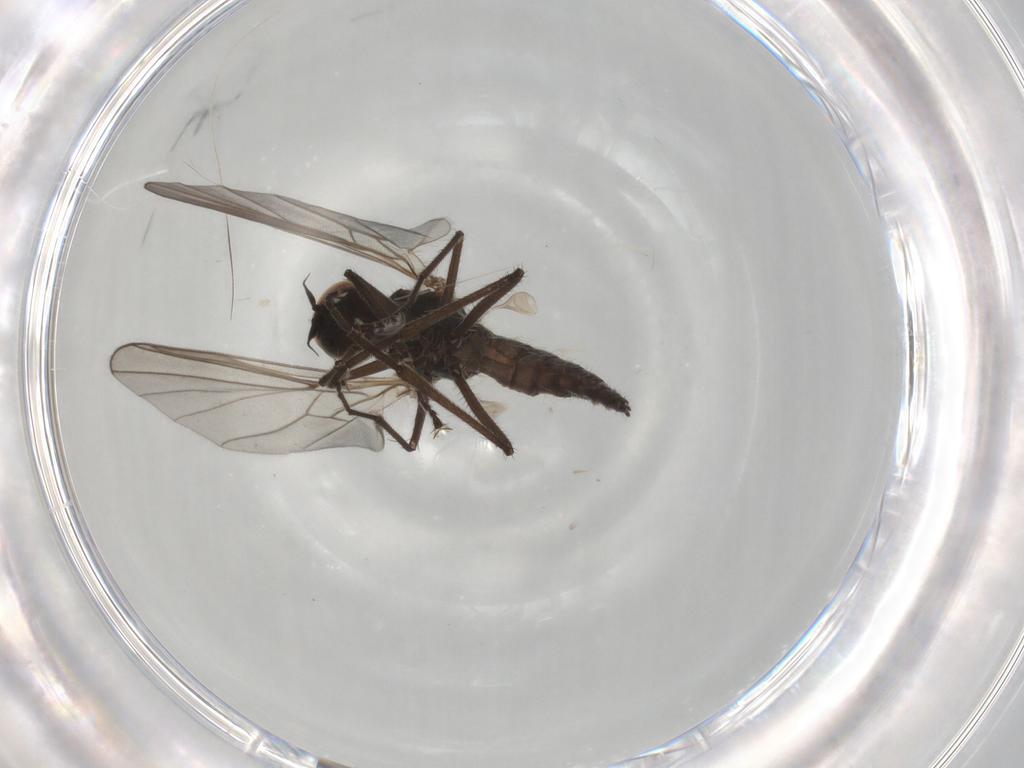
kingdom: Animalia
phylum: Arthropoda
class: Insecta
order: Diptera
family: Hybotidae
